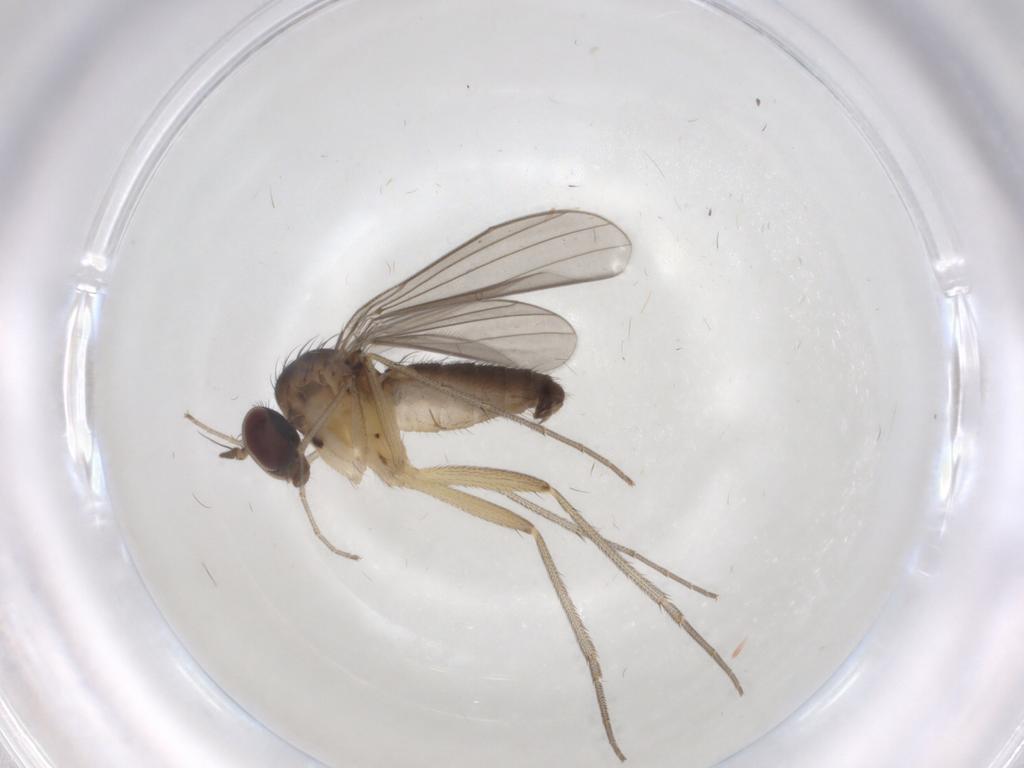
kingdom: Animalia
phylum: Arthropoda
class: Insecta
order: Diptera
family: Dolichopodidae
